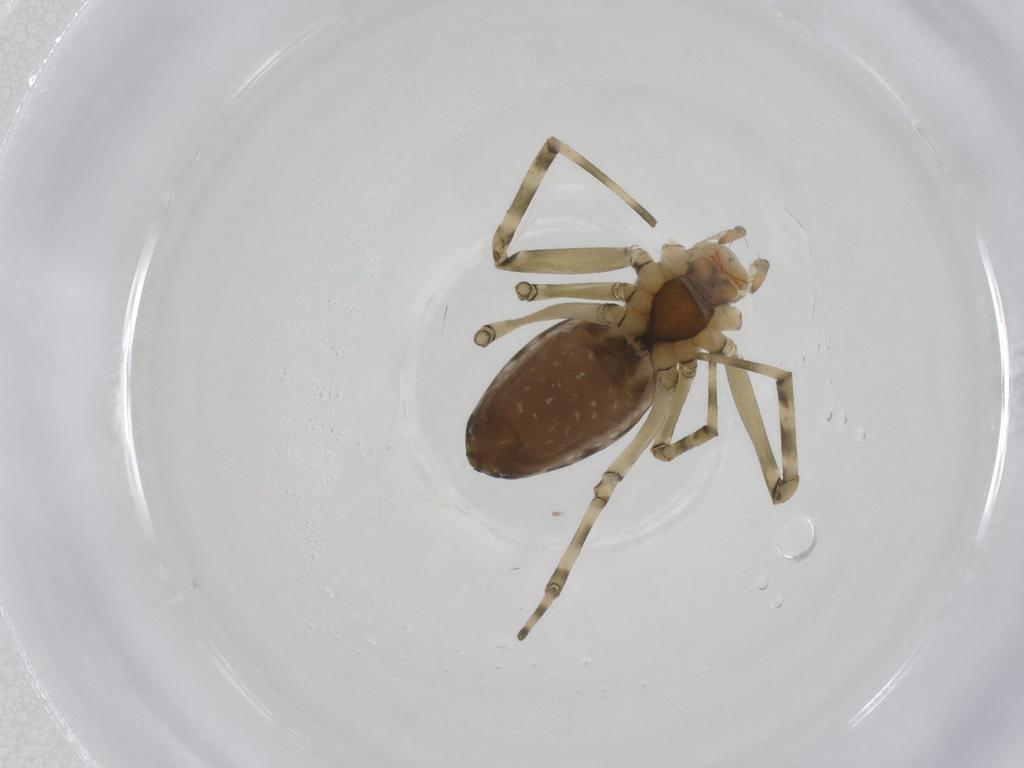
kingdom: Animalia
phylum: Arthropoda
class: Arachnida
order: Araneae
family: Linyphiidae
